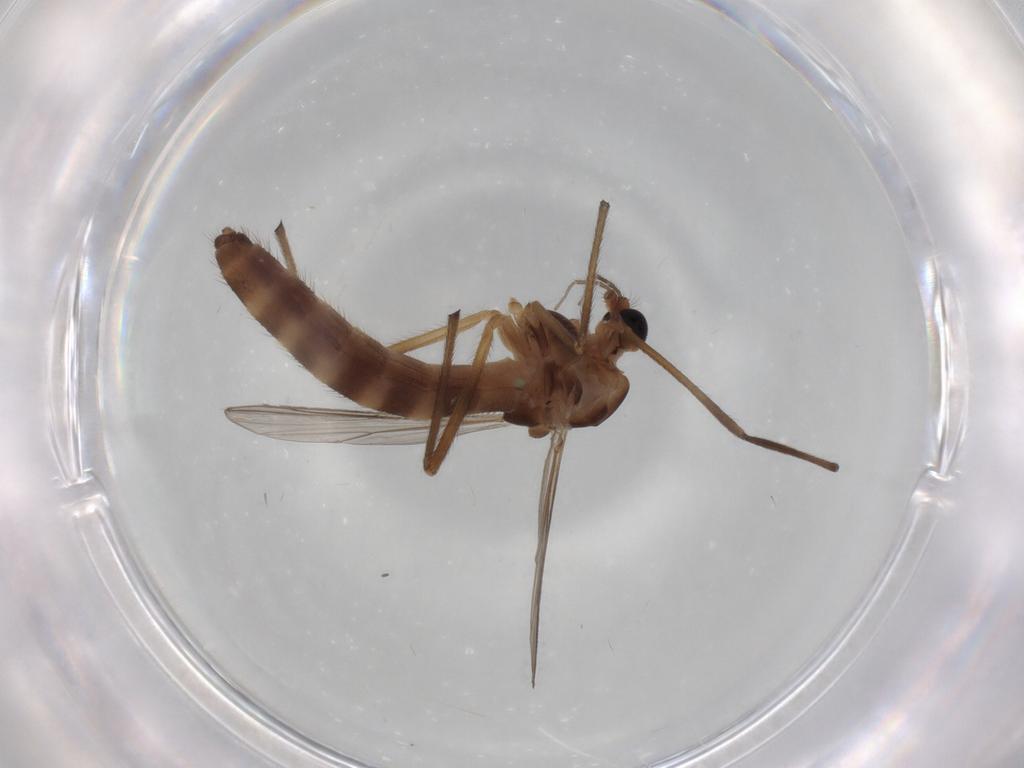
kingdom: Animalia
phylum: Arthropoda
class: Insecta
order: Diptera
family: Chironomidae
